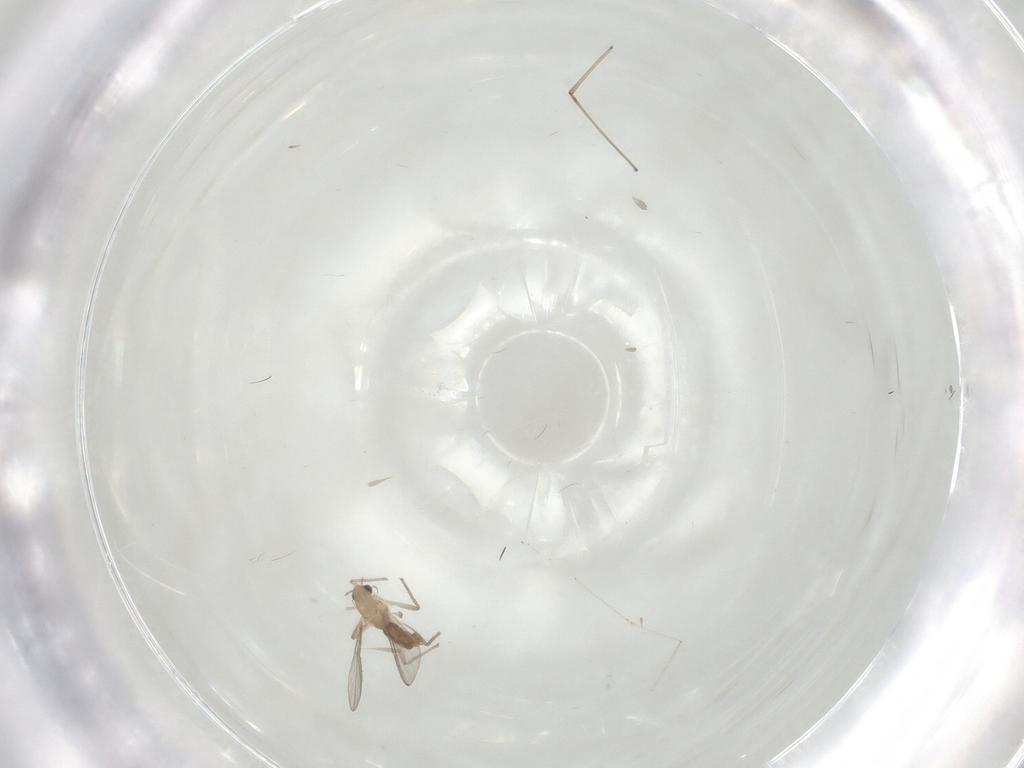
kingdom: Animalia
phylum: Arthropoda
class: Insecta
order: Diptera
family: Cecidomyiidae
